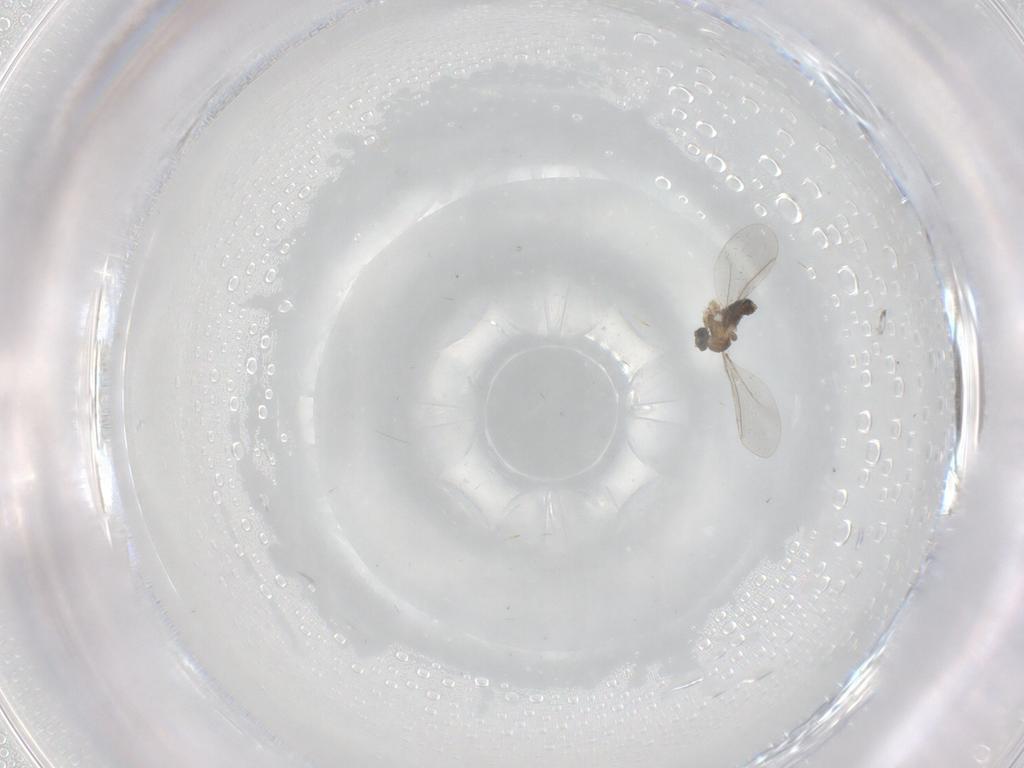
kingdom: Animalia
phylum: Arthropoda
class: Insecta
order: Diptera
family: Cecidomyiidae
